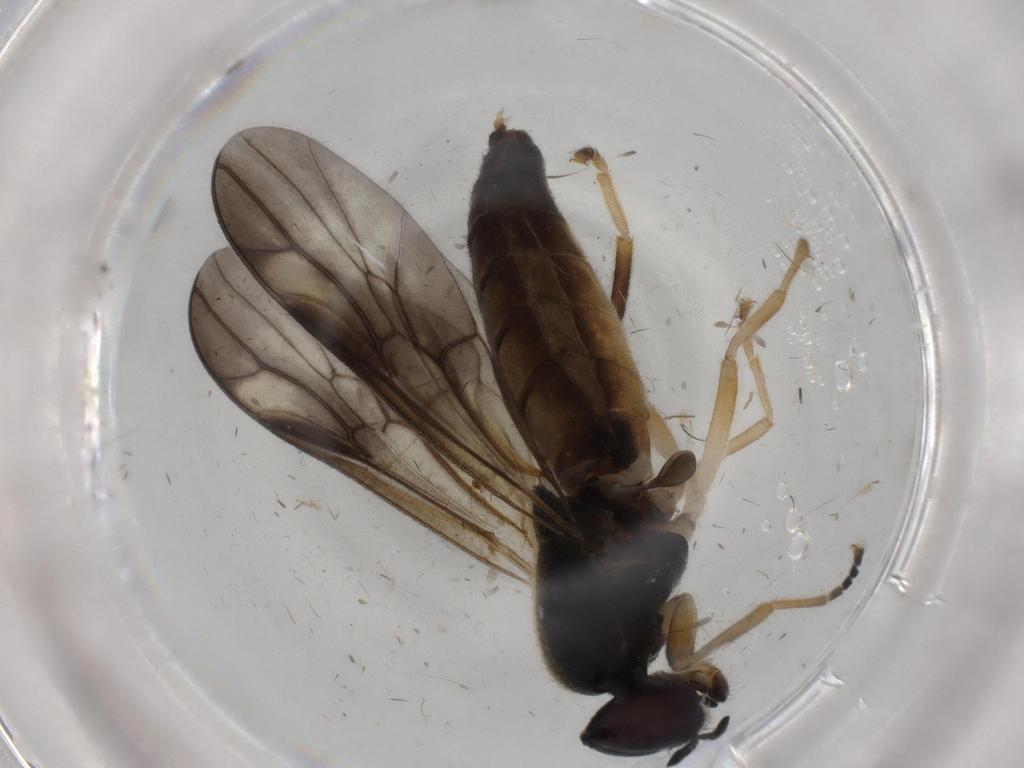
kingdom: Animalia
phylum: Arthropoda
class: Insecta
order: Diptera
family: Stratiomyidae
